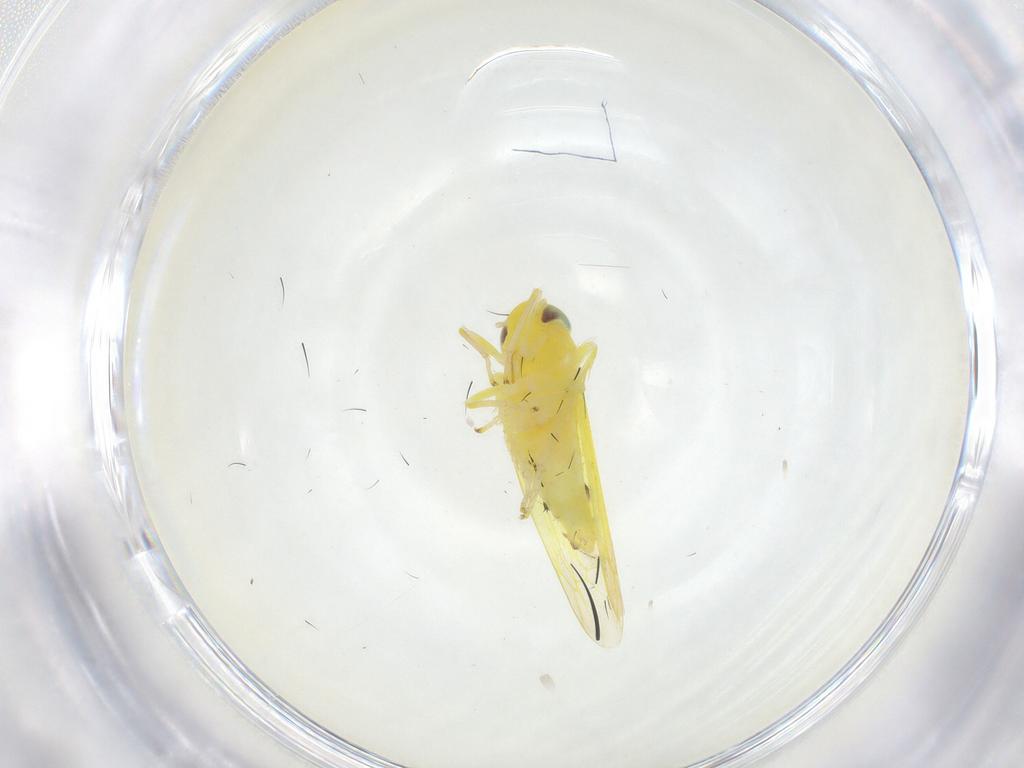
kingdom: Animalia
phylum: Arthropoda
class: Insecta
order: Hemiptera
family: Cicadellidae
